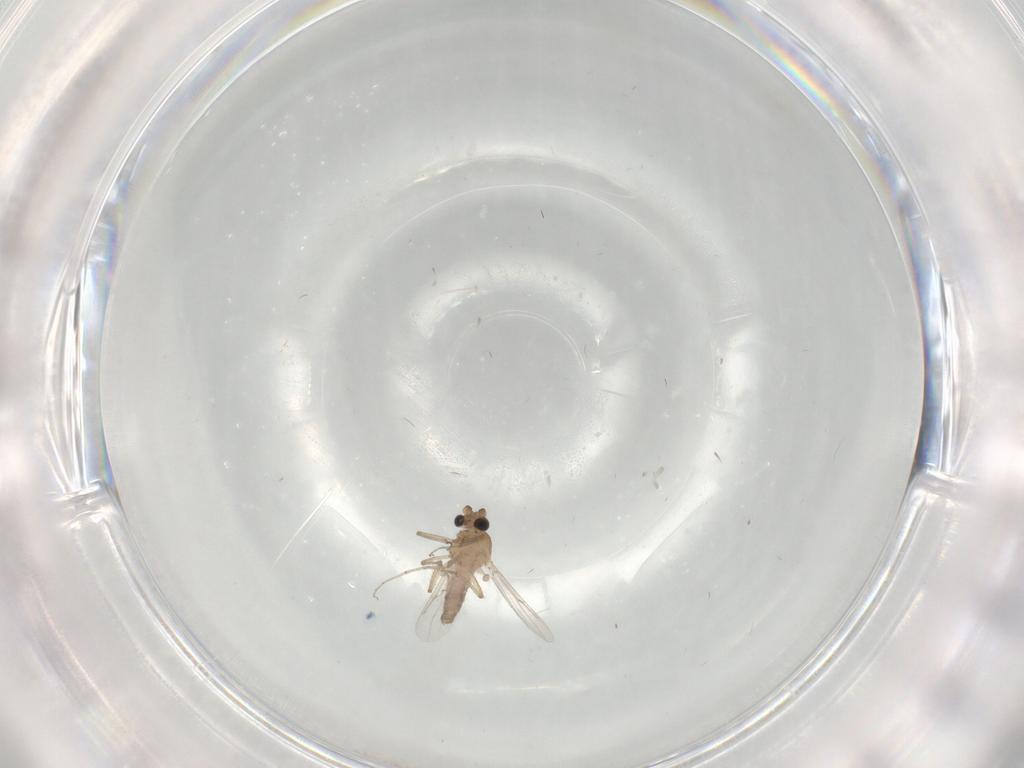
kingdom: Animalia
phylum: Arthropoda
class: Insecta
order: Diptera
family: Ceratopogonidae
